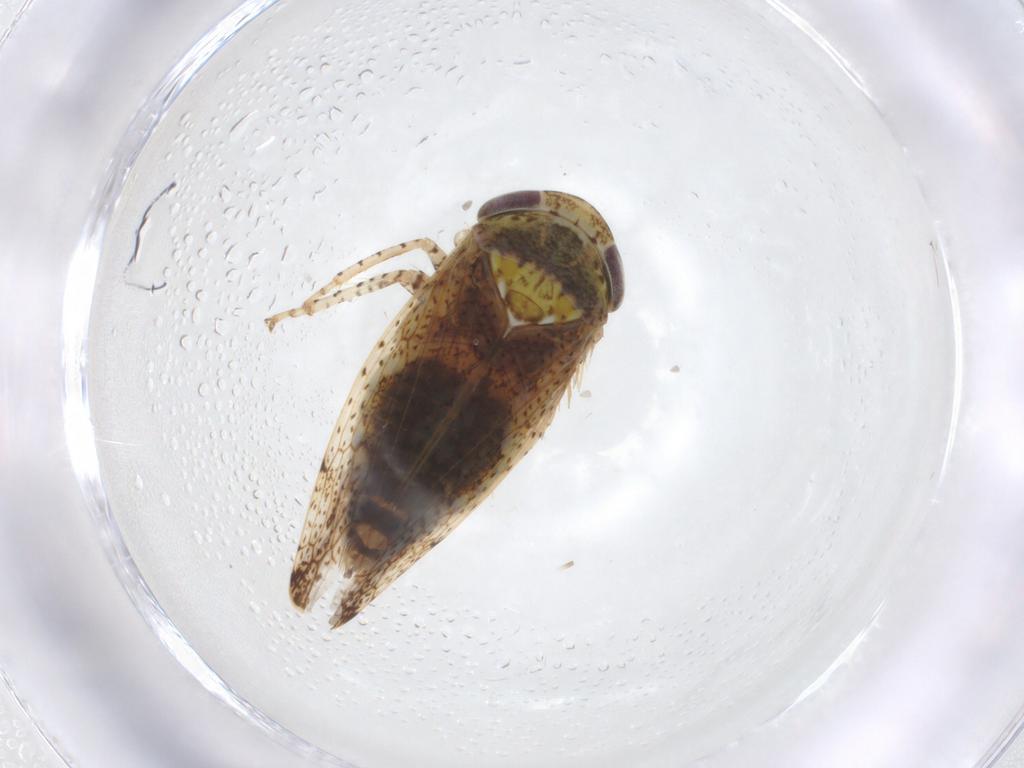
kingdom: Animalia
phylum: Arthropoda
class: Insecta
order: Hemiptera
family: Cicadellidae
